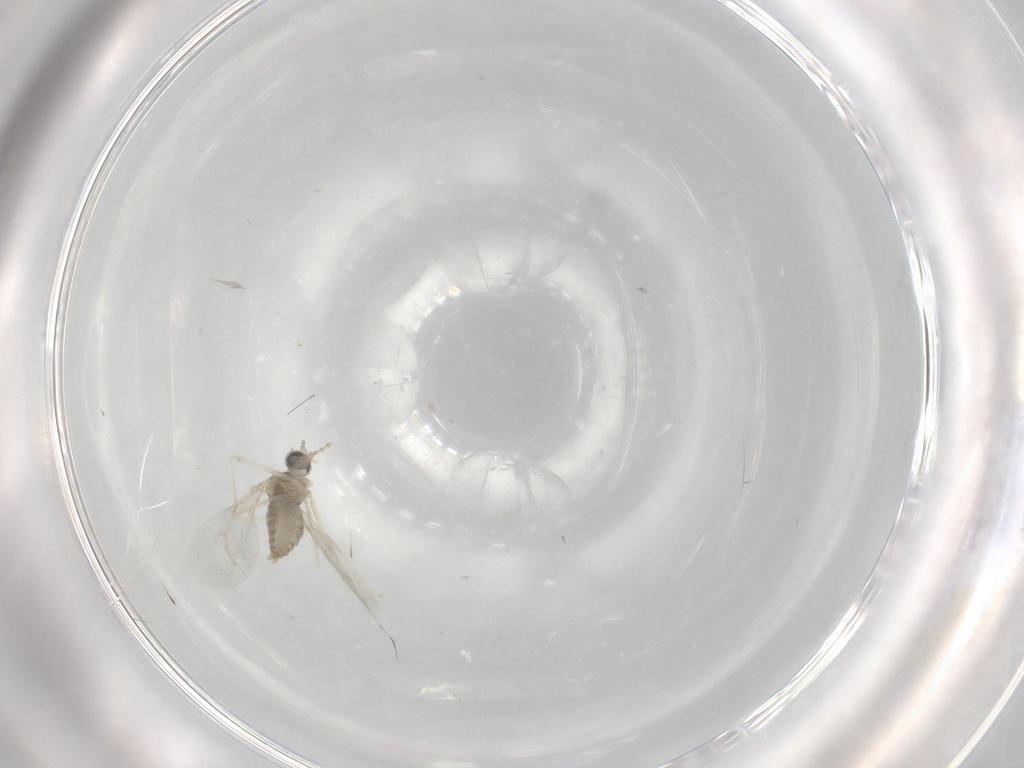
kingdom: Animalia
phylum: Arthropoda
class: Insecta
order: Diptera
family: Cecidomyiidae
